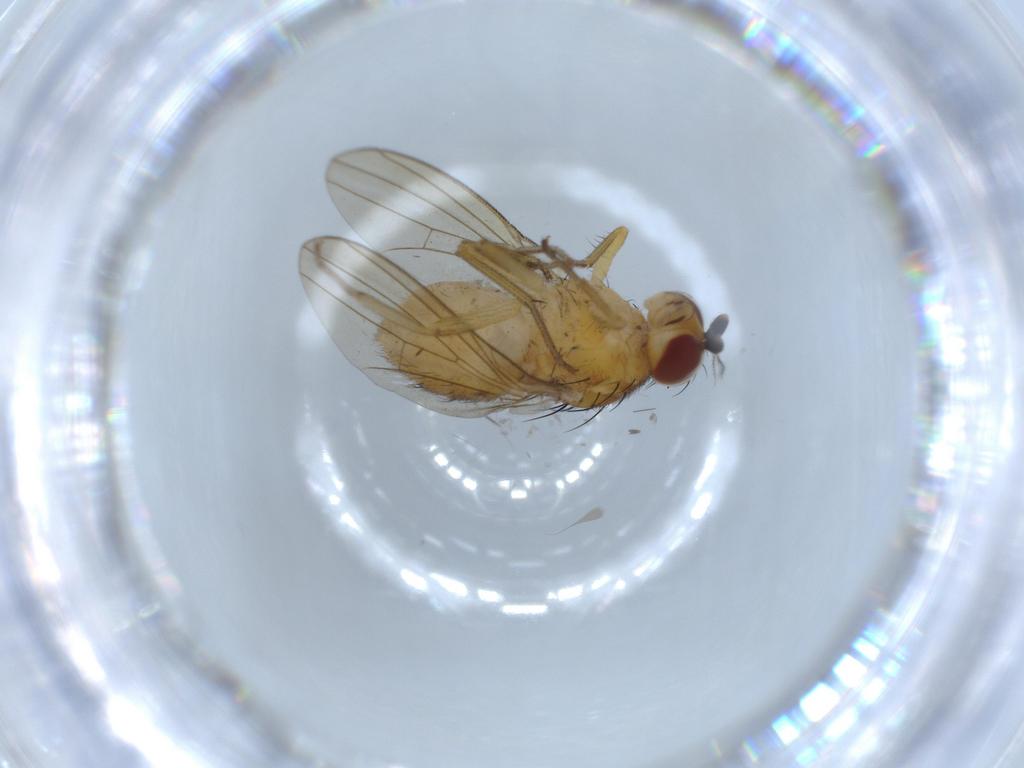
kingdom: Animalia
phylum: Arthropoda
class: Insecta
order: Diptera
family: Lauxaniidae
